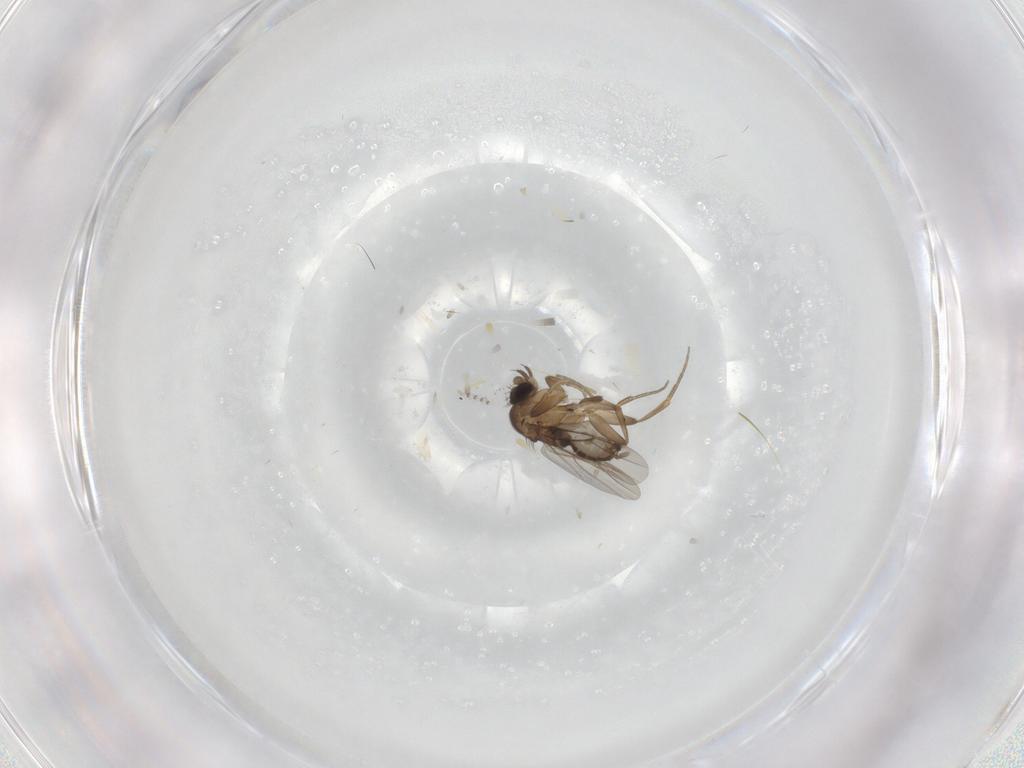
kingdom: Animalia
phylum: Arthropoda
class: Insecta
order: Diptera
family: Phoridae
